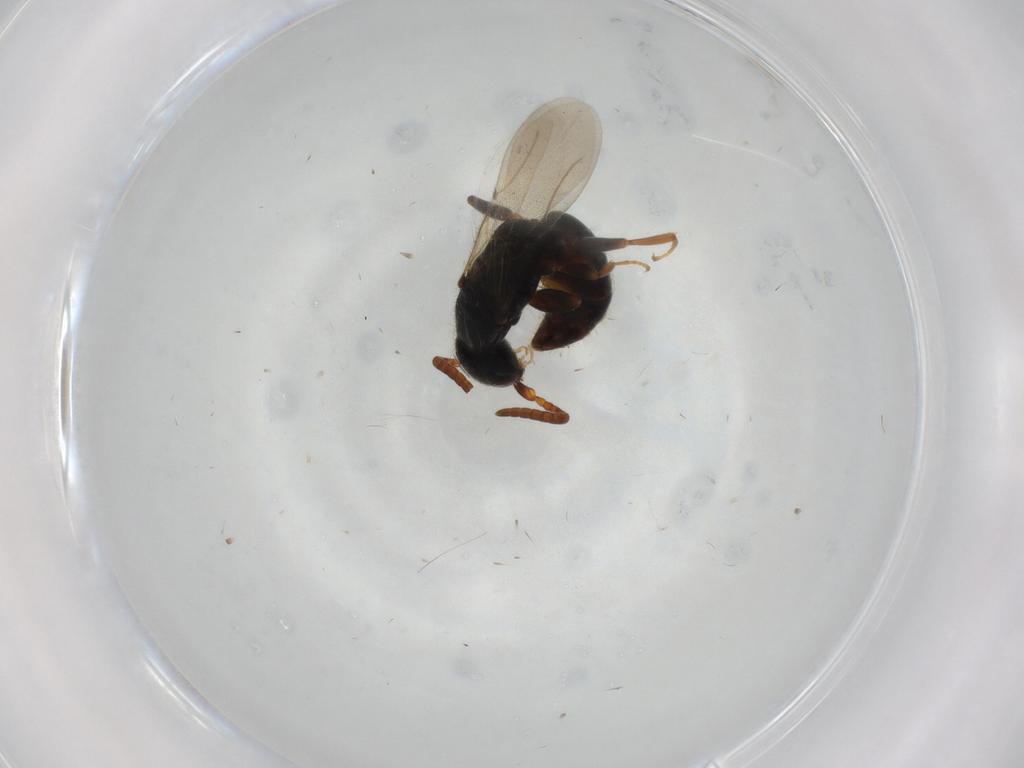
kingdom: Animalia
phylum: Arthropoda
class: Insecta
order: Hymenoptera
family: Bethylidae
